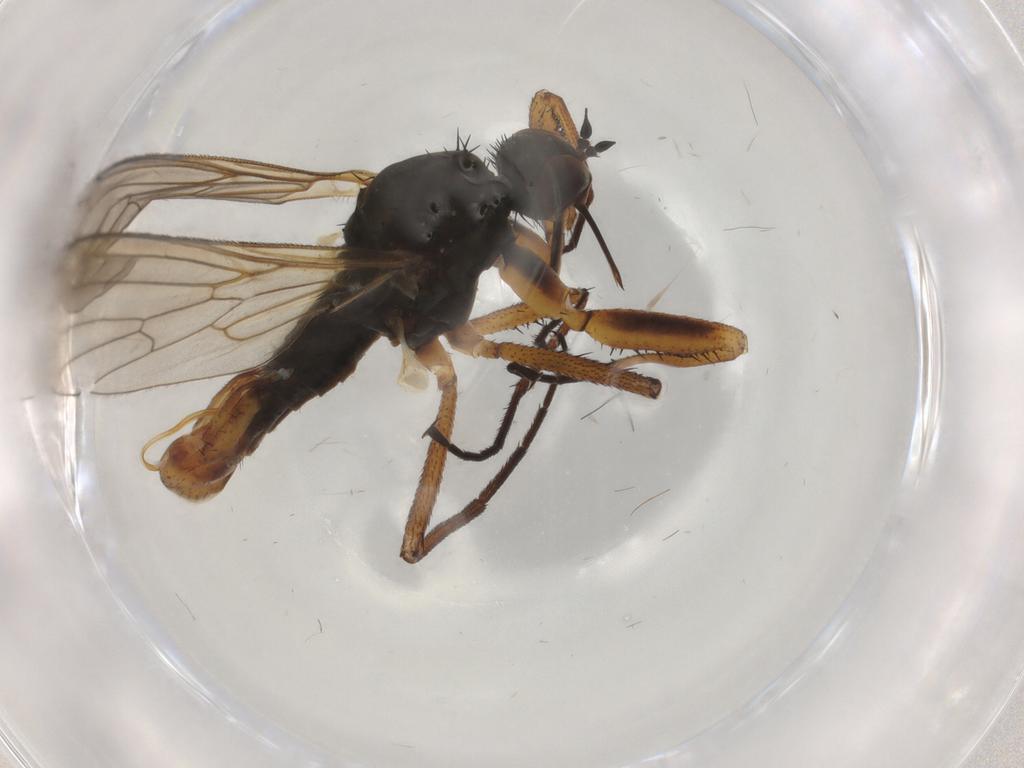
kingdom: Animalia
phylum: Arthropoda
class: Insecta
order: Diptera
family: Empididae
